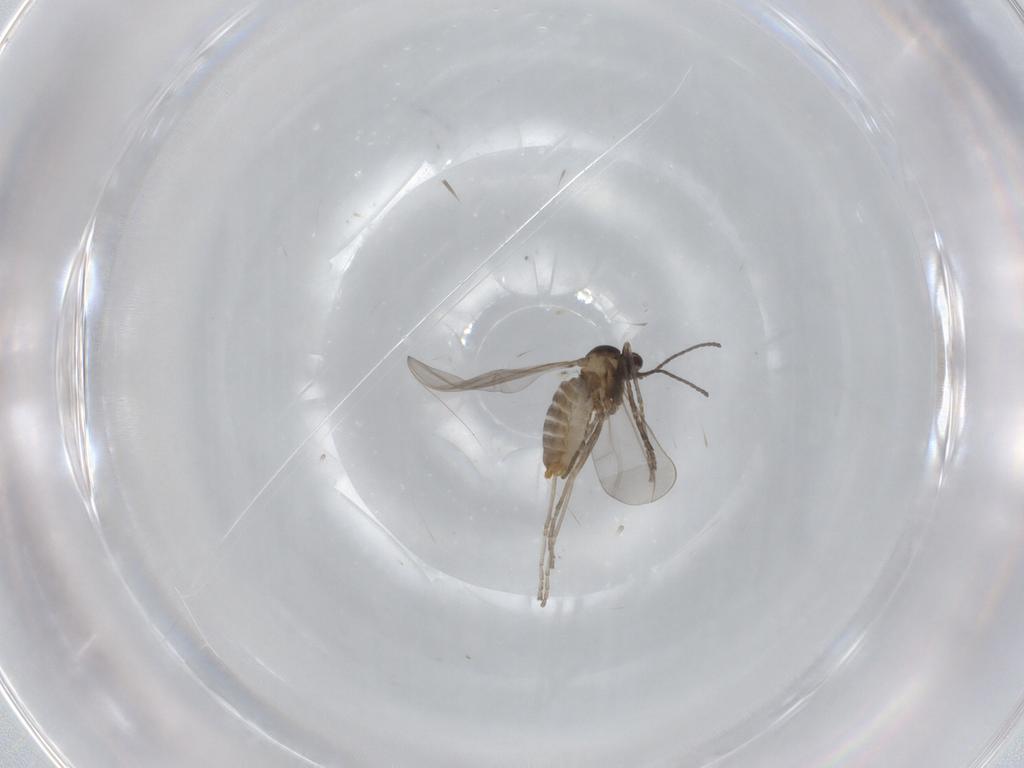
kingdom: Animalia
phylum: Arthropoda
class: Insecta
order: Diptera
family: Cecidomyiidae
